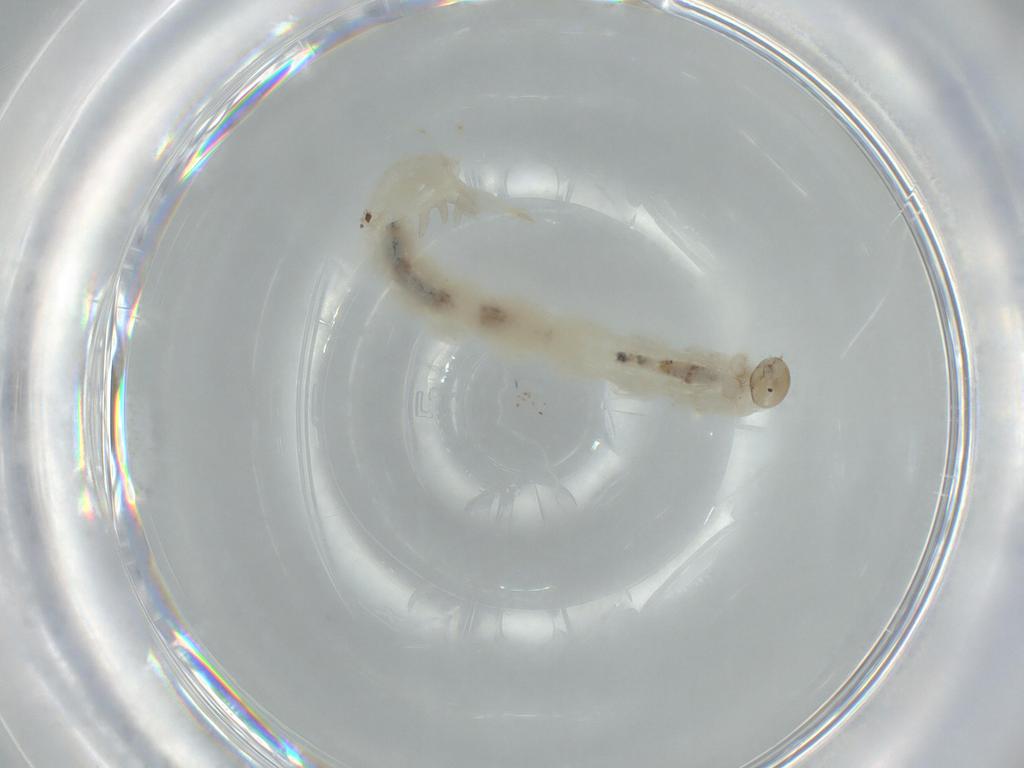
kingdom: Animalia
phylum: Arthropoda
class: Insecta
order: Diptera
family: Chironomidae
